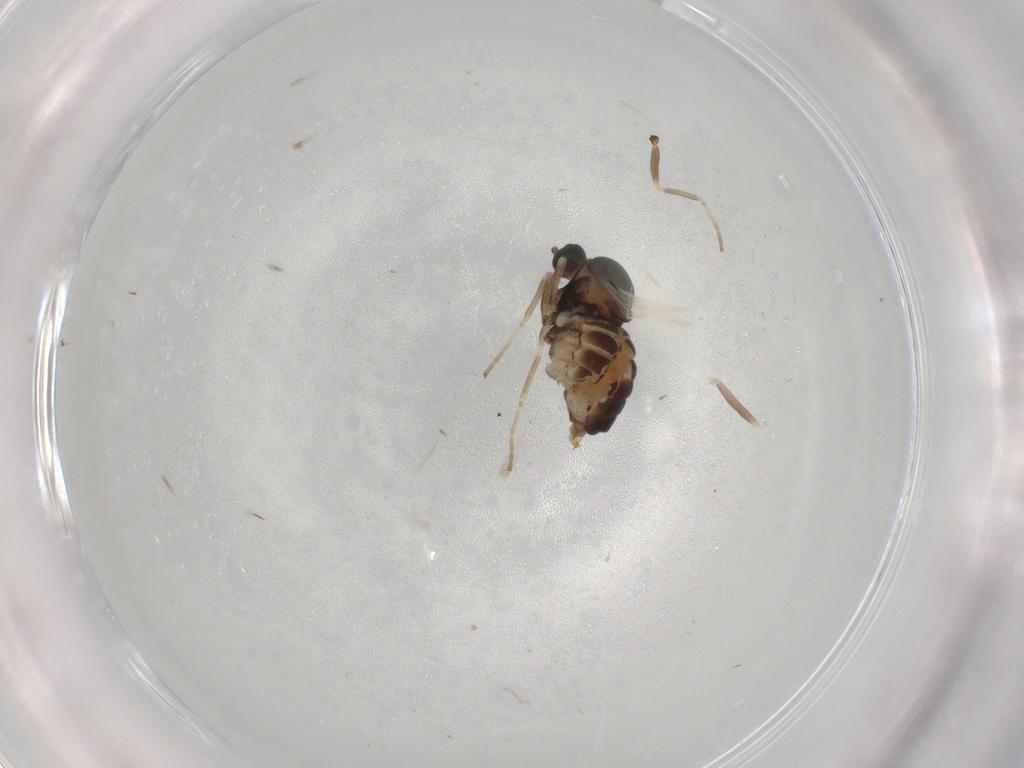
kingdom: Animalia
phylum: Arthropoda
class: Insecta
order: Diptera
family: Cecidomyiidae
